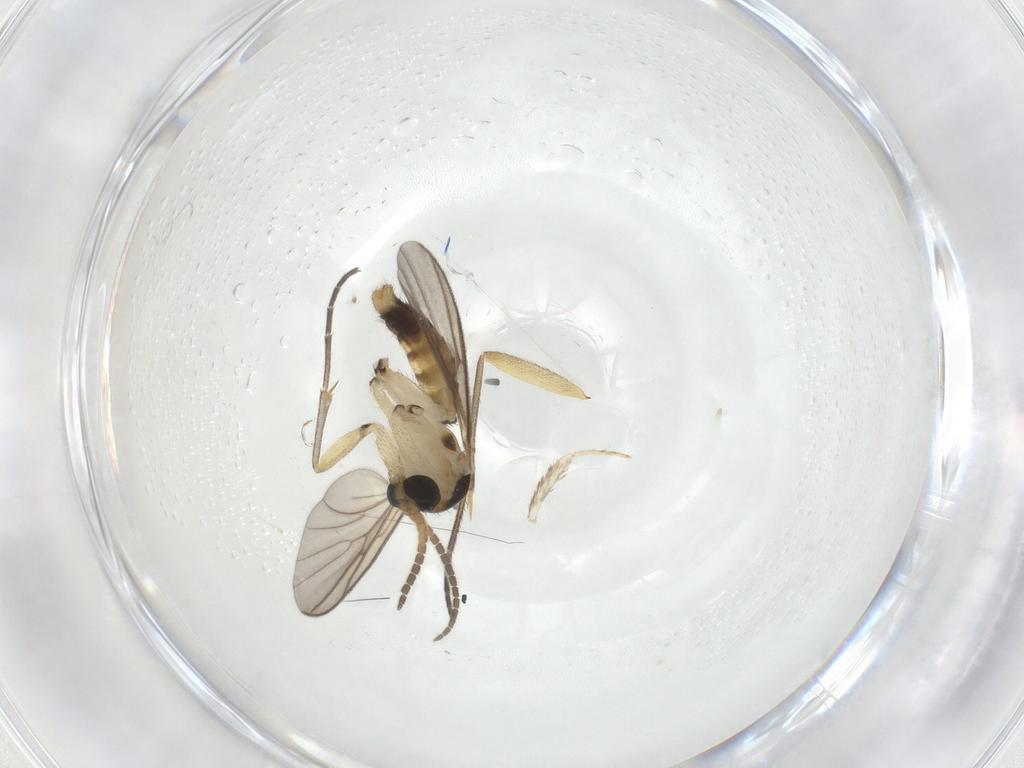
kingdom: Animalia
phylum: Arthropoda
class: Insecta
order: Diptera
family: Mycetophilidae
